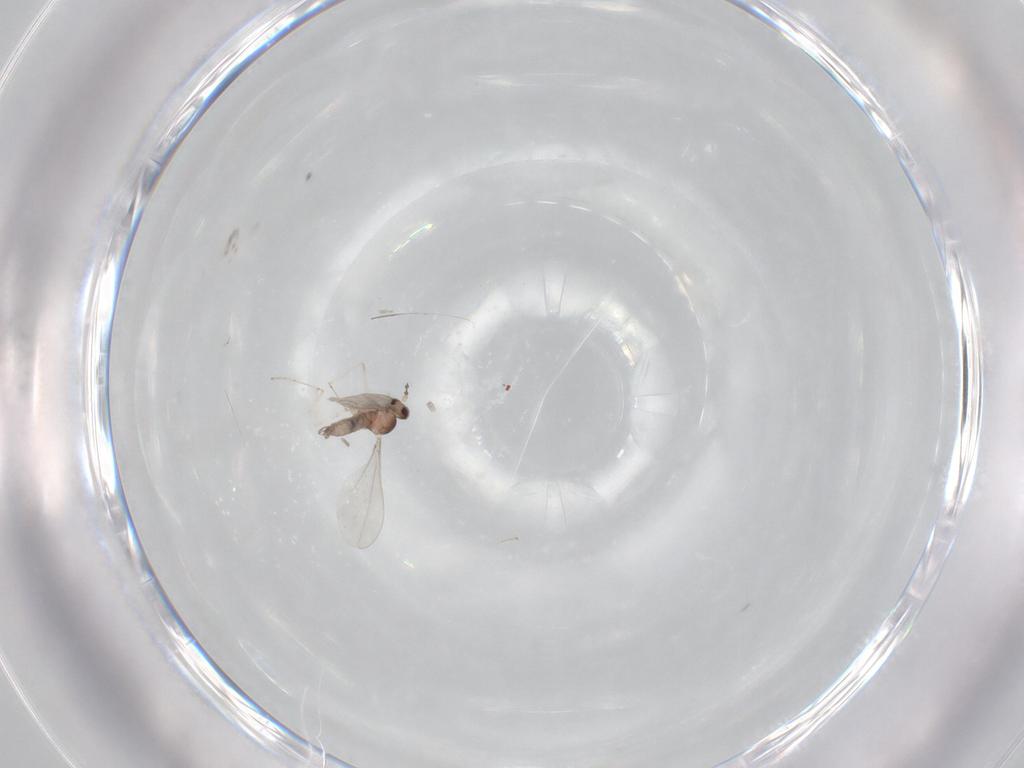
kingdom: Animalia
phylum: Arthropoda
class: Insecta
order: Diptera
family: Cecidomyiidae
